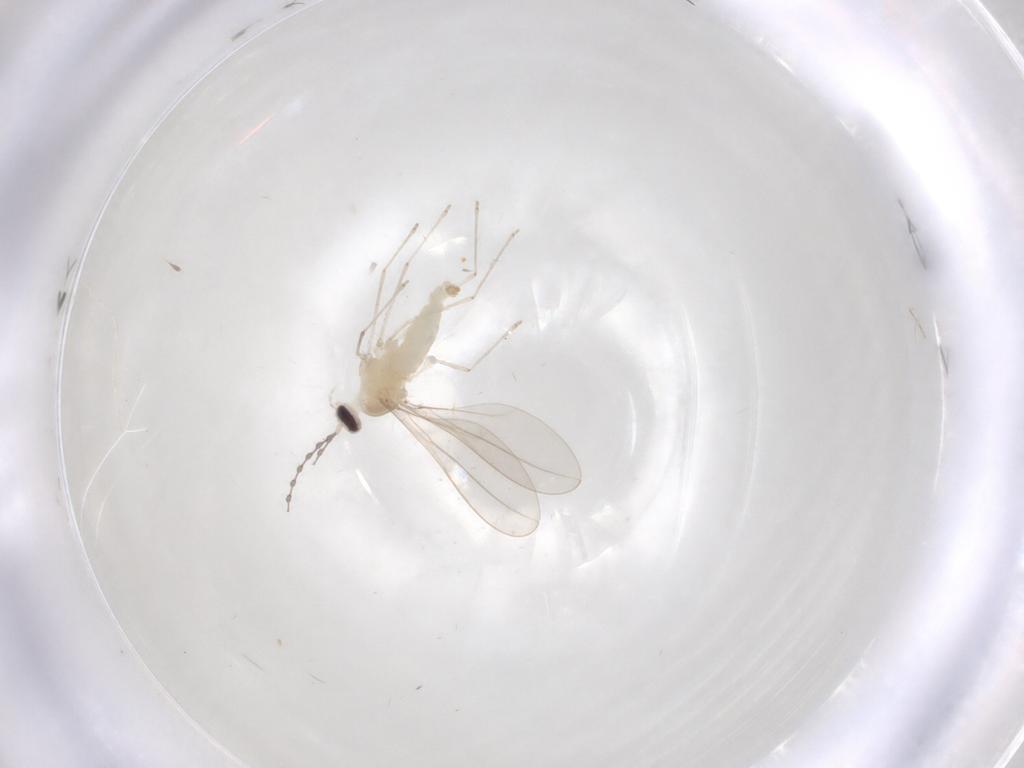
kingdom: Animalia
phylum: Arthropoda
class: Insecta
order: Diptera
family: Cecidomyiidae
